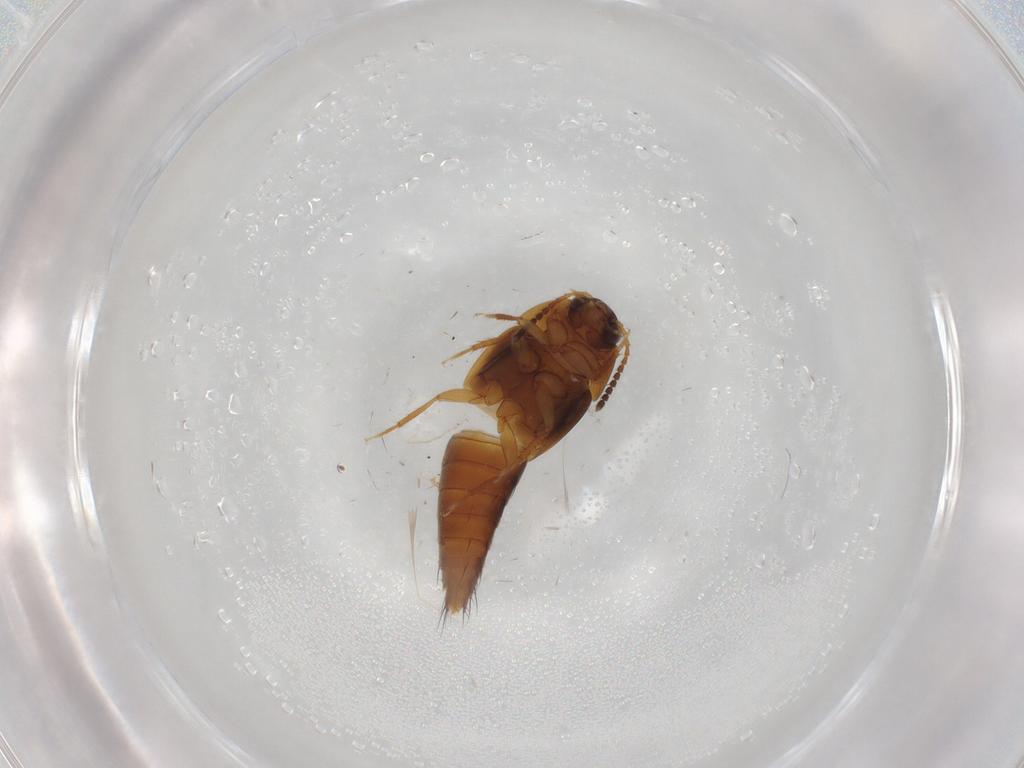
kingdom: Animalia
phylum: Arthropoda
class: Insecta
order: Coleoptera
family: Staphylinidae
